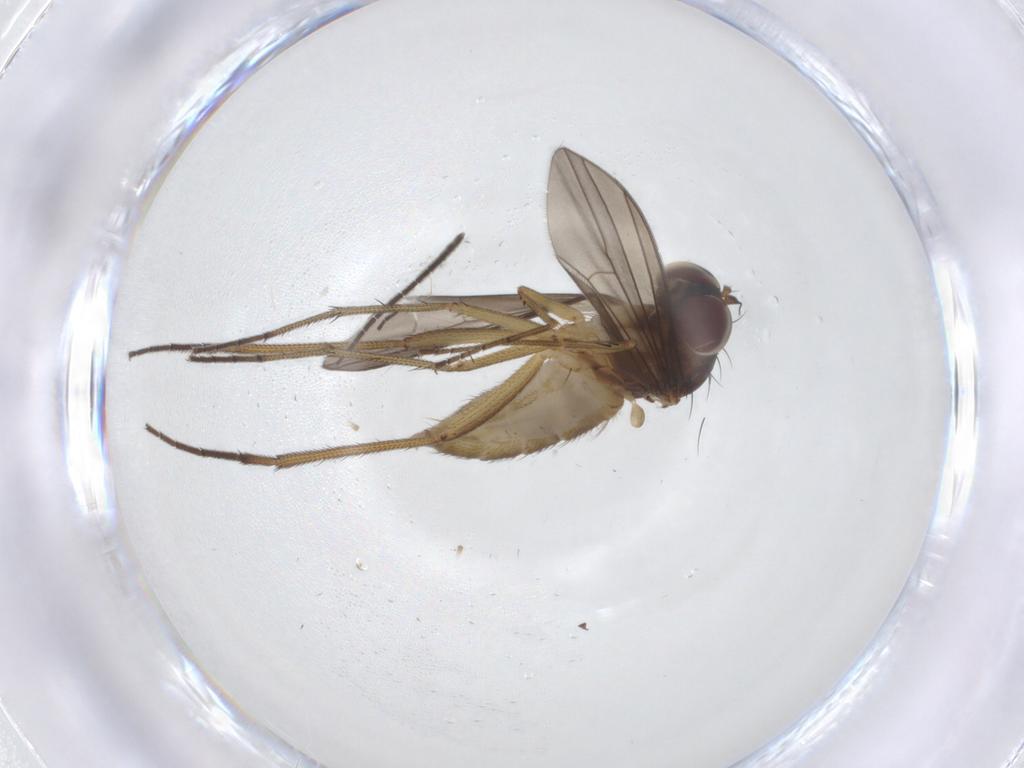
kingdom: Animalia
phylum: Arthropoda
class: Insecta
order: Diptera
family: Dolichopodidae
